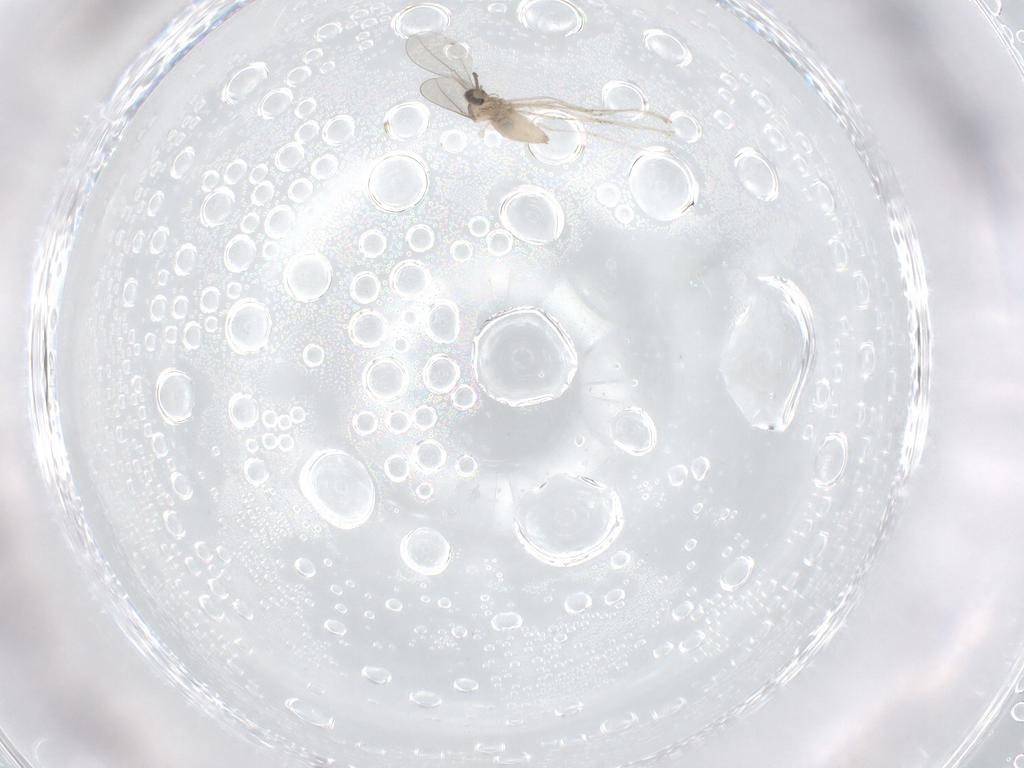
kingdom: Animalia
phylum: Arthropoda
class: Insecta
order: Diptera
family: Cecidomyiidae
